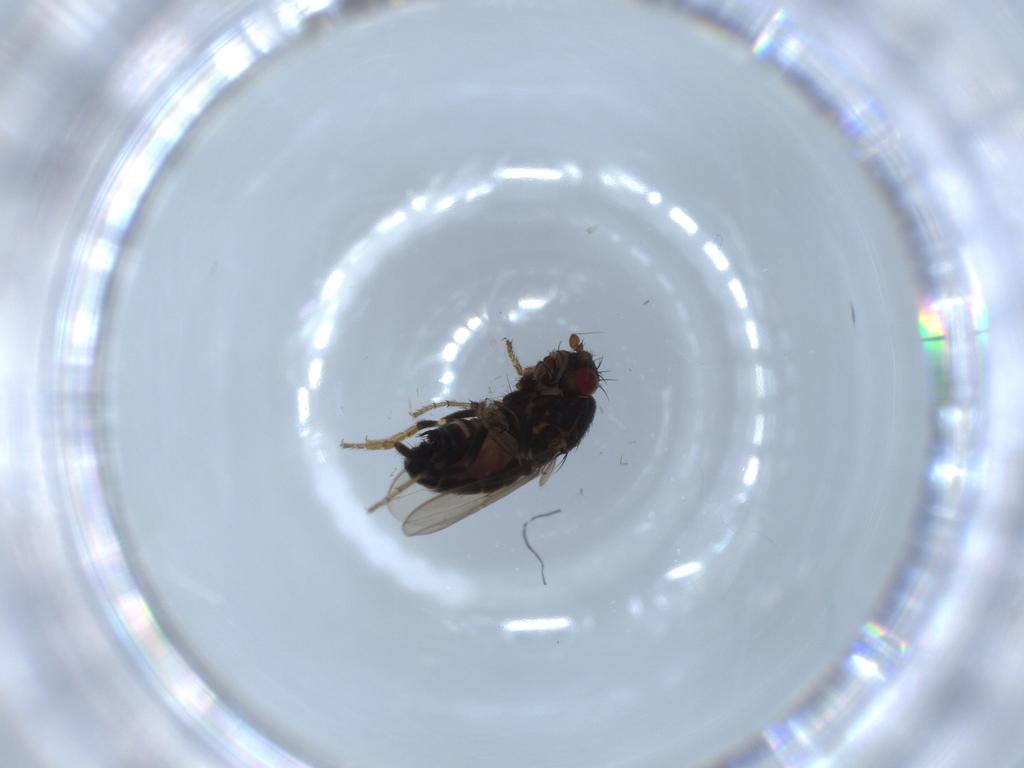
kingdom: Animalia
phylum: Arthropoda
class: Insecta
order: Diptera
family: Sphaeroceridae
